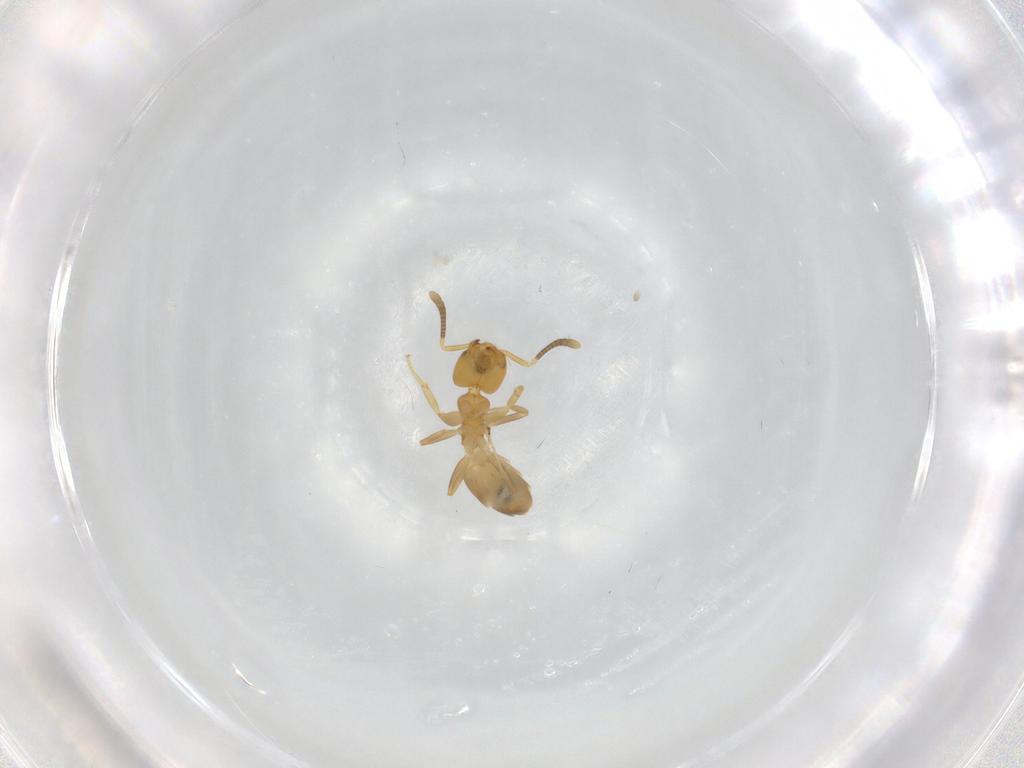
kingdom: Animalia
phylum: Arthropoda
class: Insecta
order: Hymenoptera
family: Formicidae
